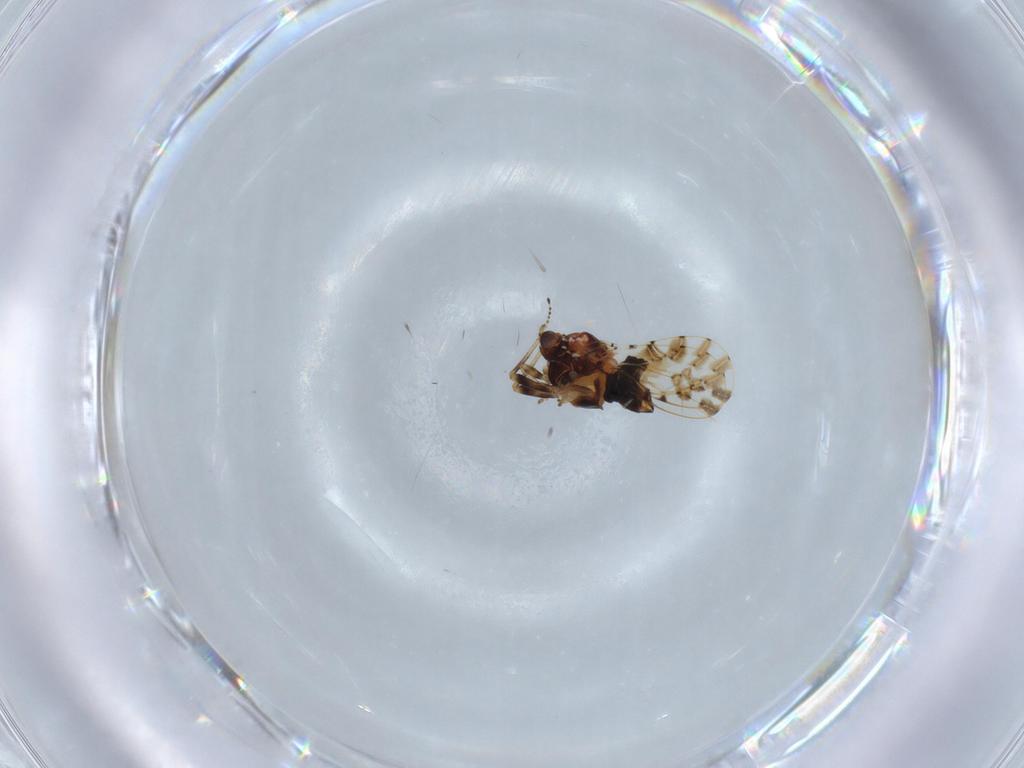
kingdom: Animalia
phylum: Arthropoda
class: Insecta
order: Hemiptera
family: Aphalaridae
